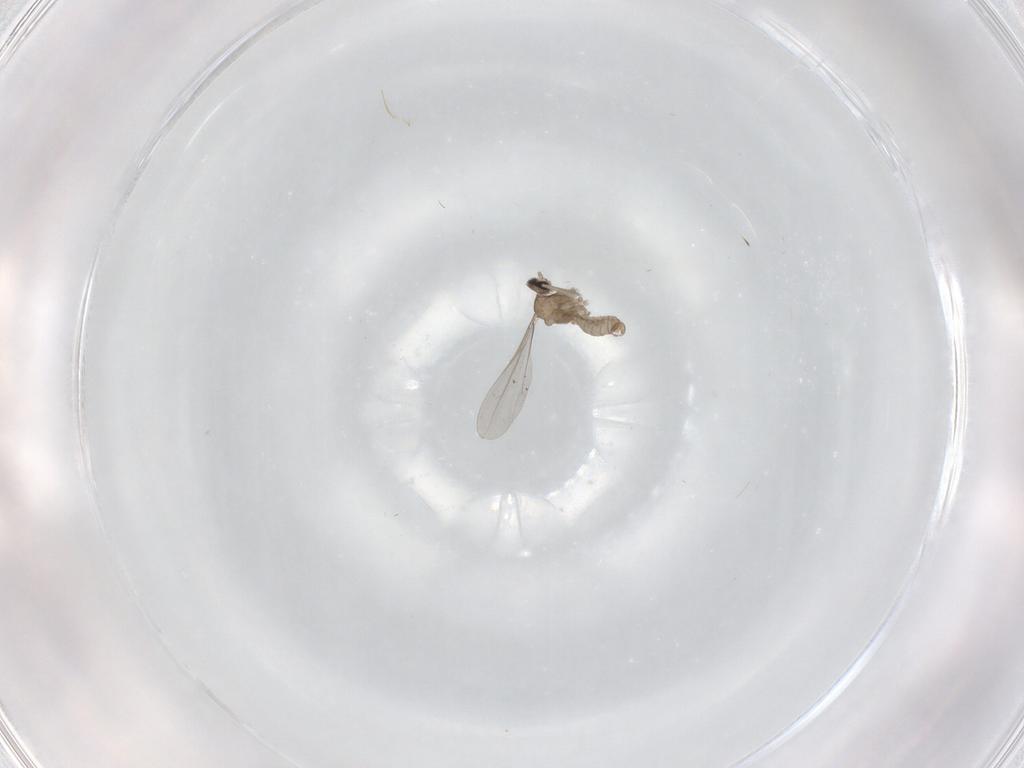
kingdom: Animalia
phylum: Arthropoda
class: Insecta
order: Diptera
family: Cecidomyiidae
